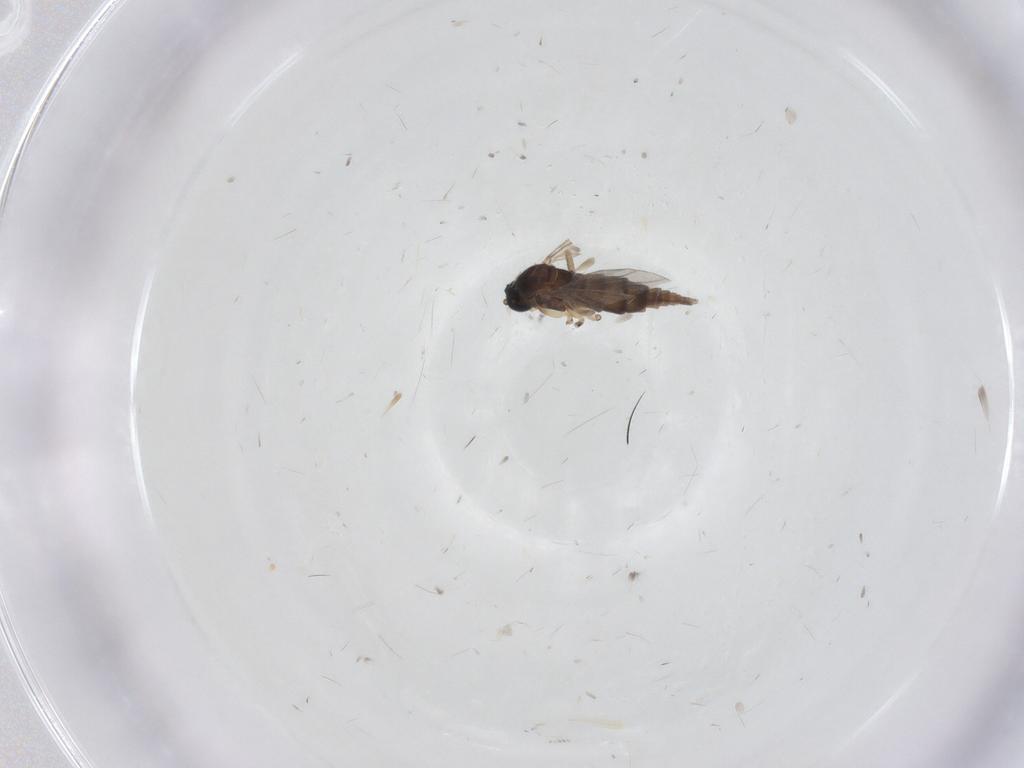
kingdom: Animalia
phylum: Arthropoda
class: Insecta
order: Diptera
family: Sciaridae
